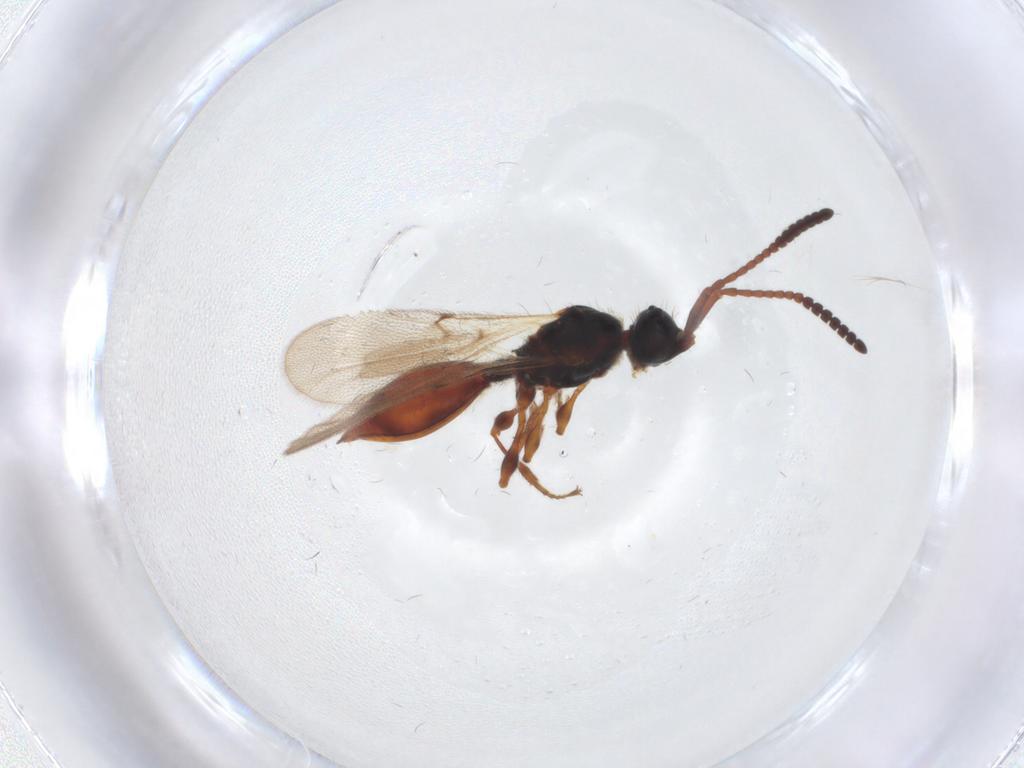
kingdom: Animalia
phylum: Arthropoda
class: Insecta
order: Hymenoptera
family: Diapriidae
